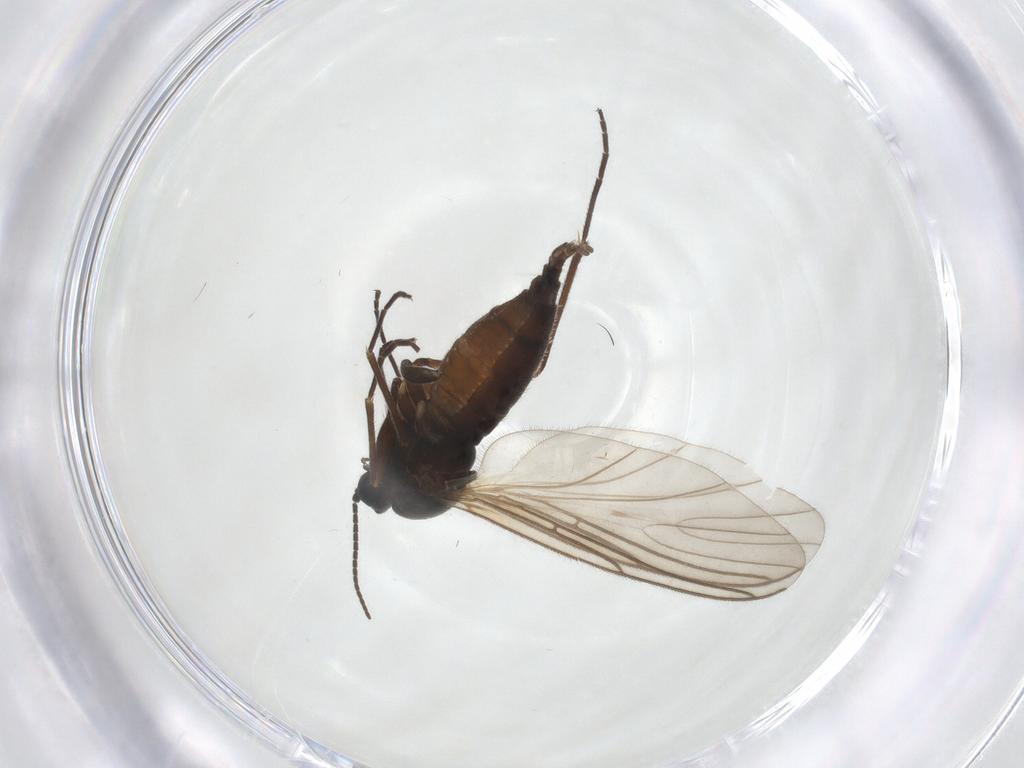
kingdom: Animalia
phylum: Arthropoda
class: Insecta
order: Diptera
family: Sciaridae
